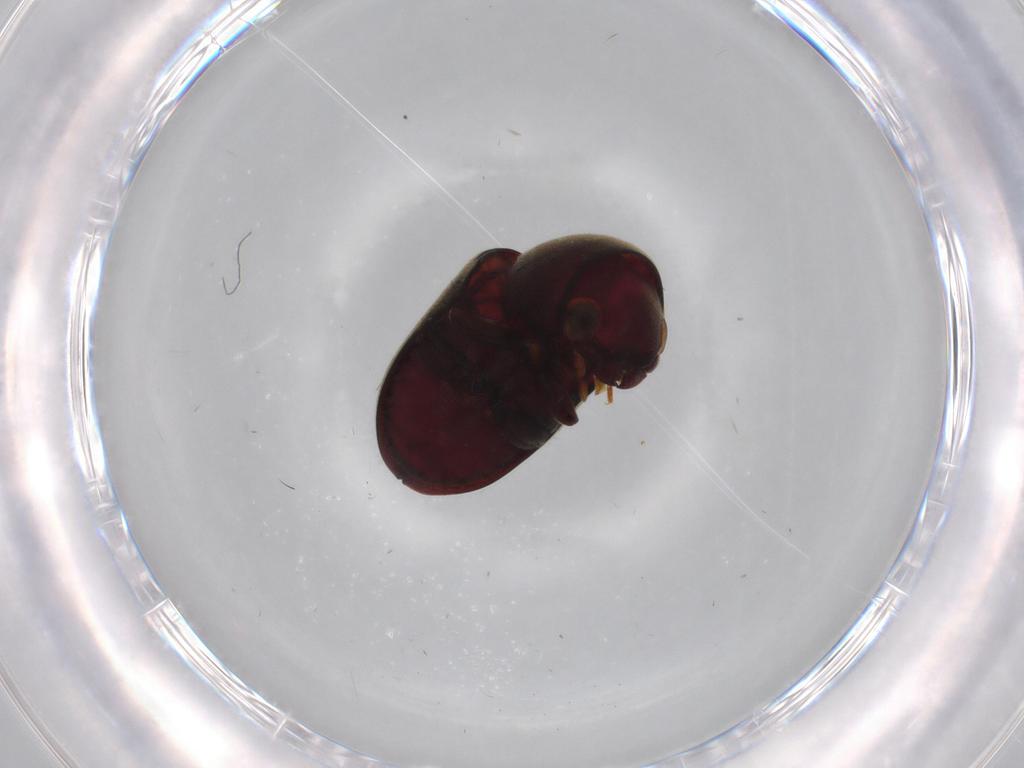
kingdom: Animalia
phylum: Arthropoda
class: Insecta
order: Coleoptera
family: Ptinidae
